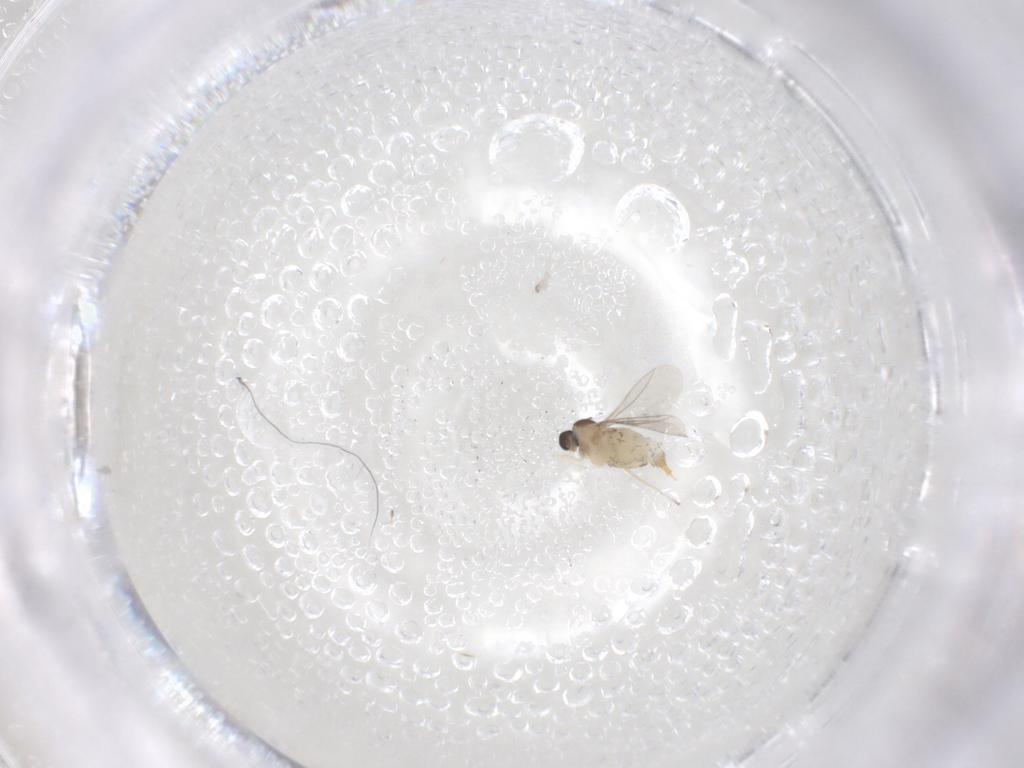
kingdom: Animalia
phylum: Arthropoda
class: Insecta
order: Diptera
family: Cecidomyiidae
